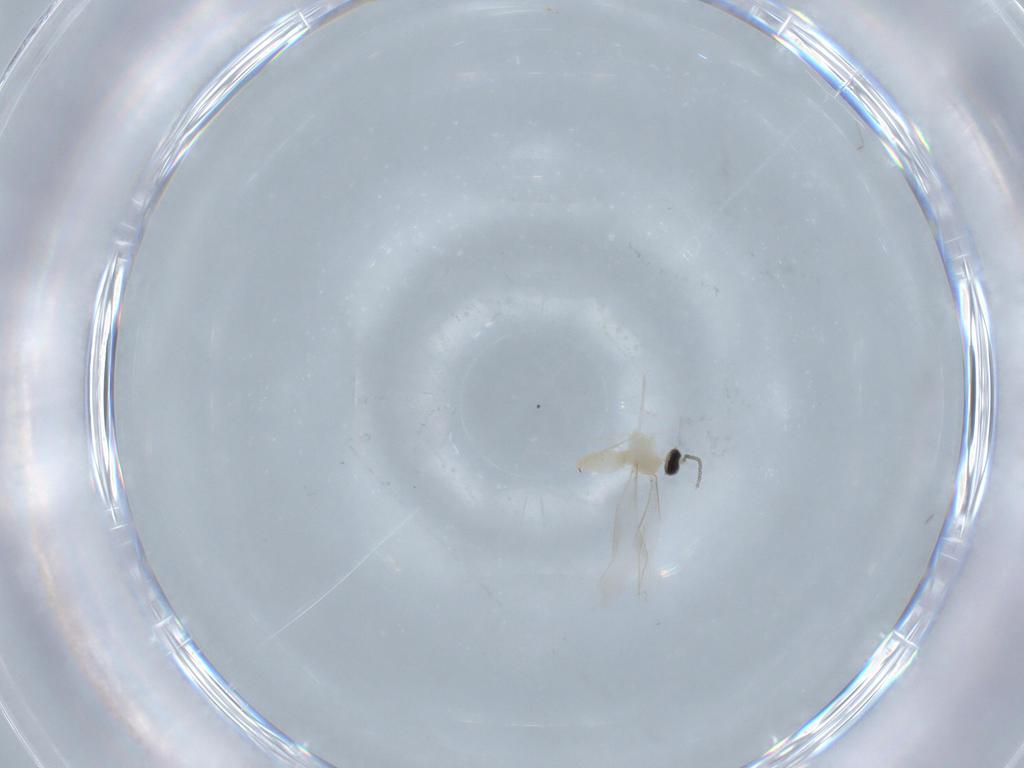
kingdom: Animalia
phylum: Arthropoda
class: Insecta
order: Diptera
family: Cecidomyiidae
